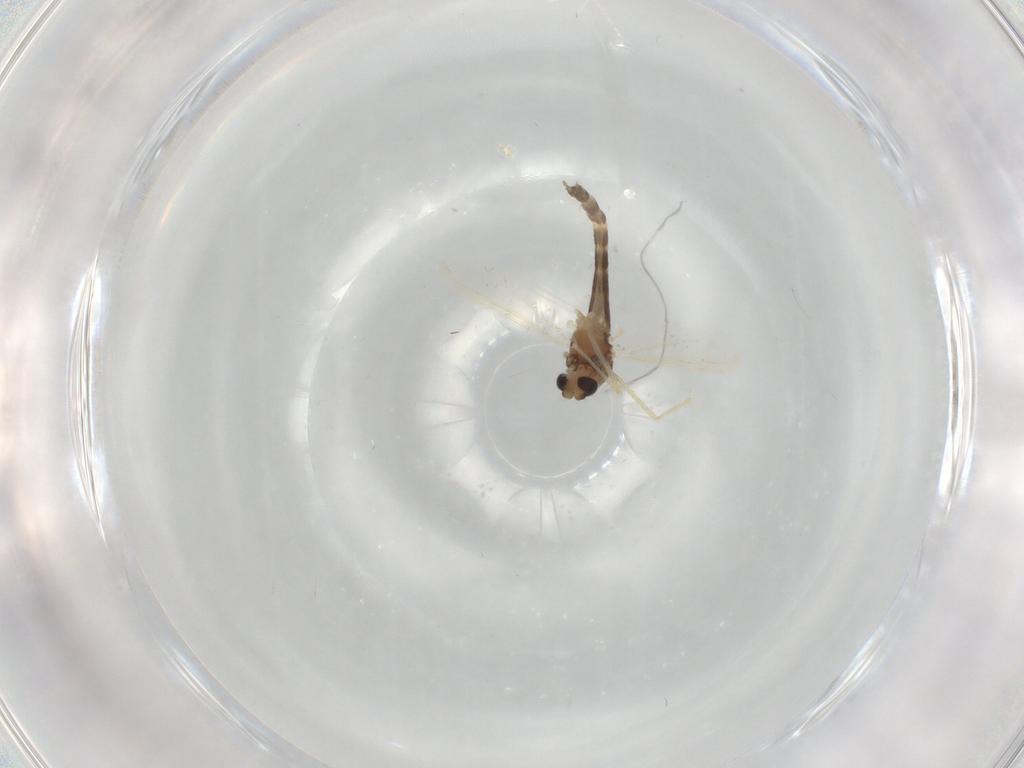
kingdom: Animalia
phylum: Arthropoda
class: Insecta
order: Diptera
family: Chironomidae
